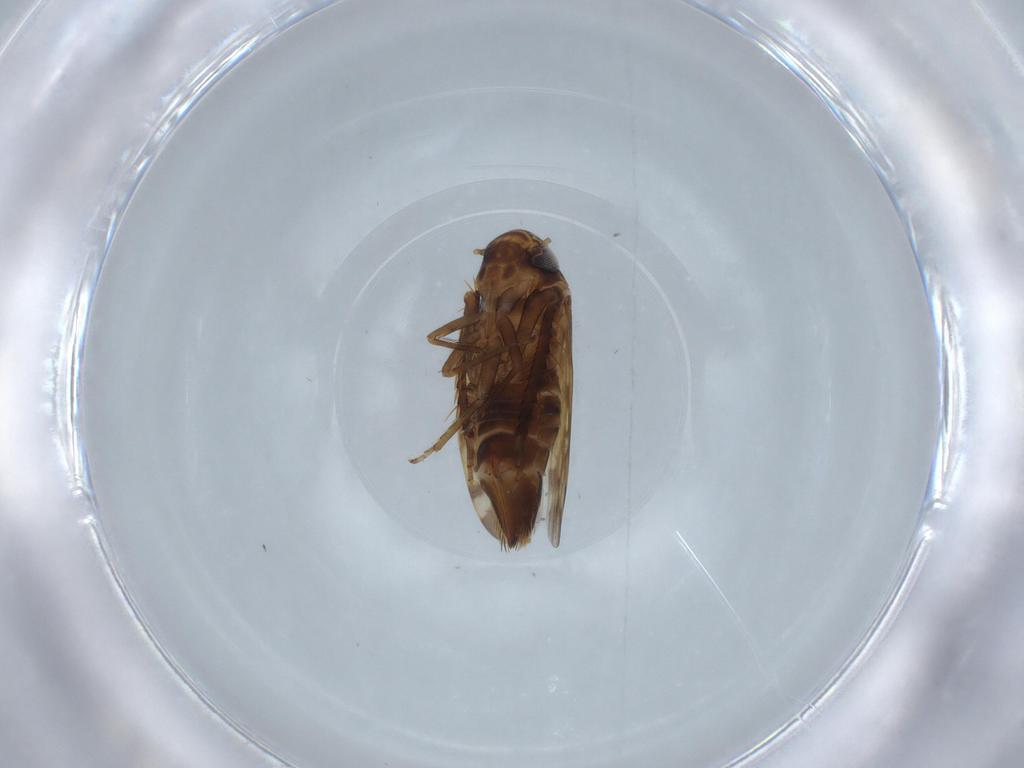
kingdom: Animalia
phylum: Arthropoda
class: Insecta
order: Hemiptera
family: Cicadellidae
